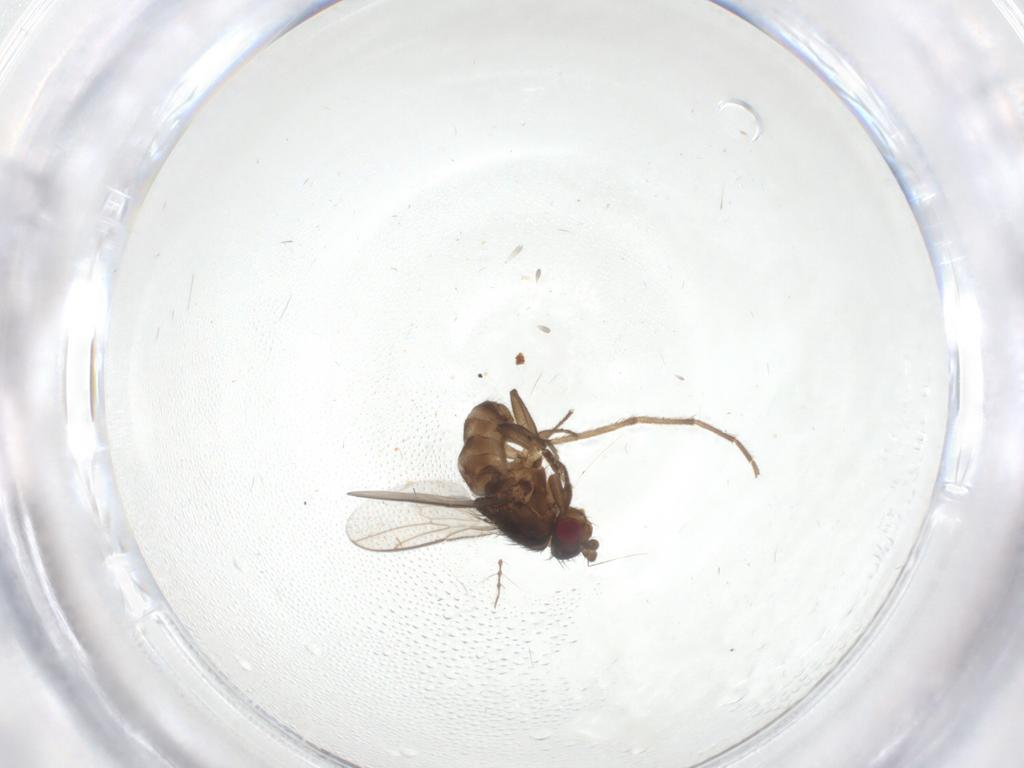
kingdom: Animalia
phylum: Arthropoda
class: Insecta
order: Diptera
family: Sphaeroceridae
